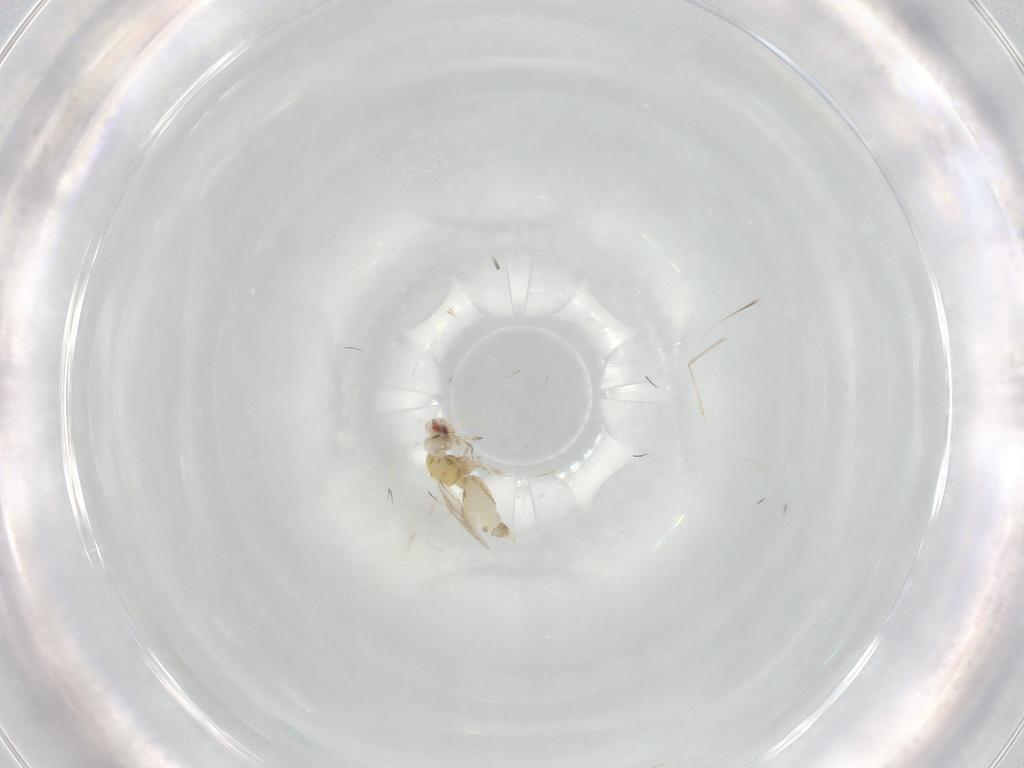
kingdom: Animalia
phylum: Arthropoda
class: Insecta
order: Hemiptera
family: Aleyrodidae
